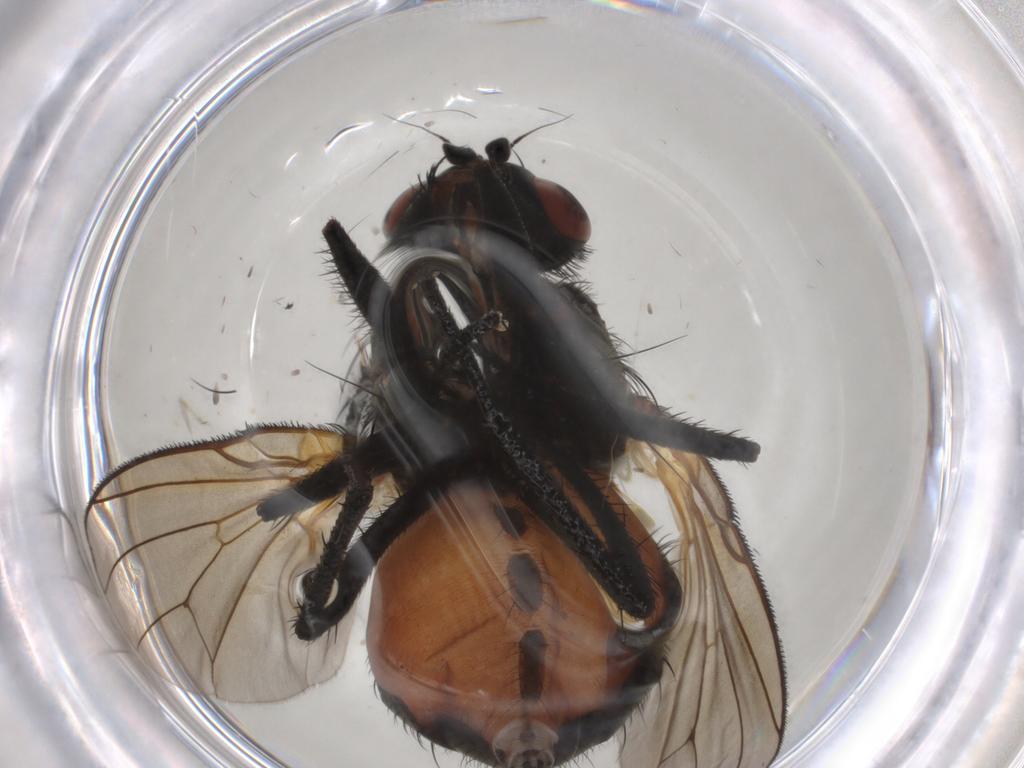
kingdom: Animalia
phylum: Arthropoda
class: Insecta
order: Diptera
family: Anthomyiidae
